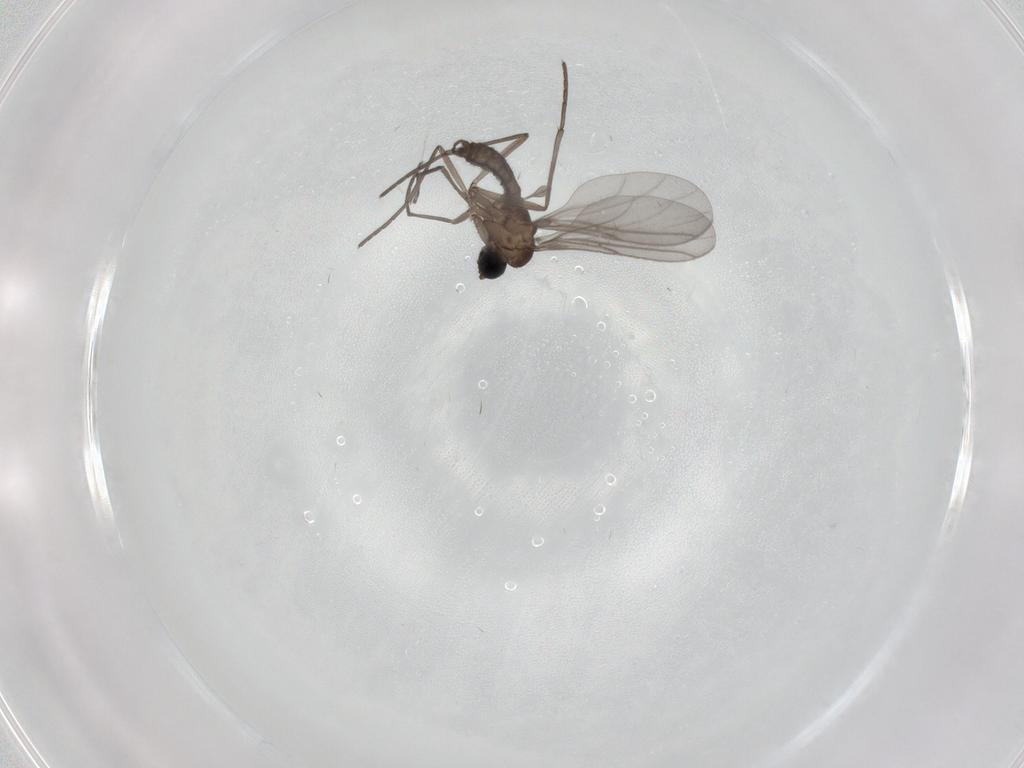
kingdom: Animalia
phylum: Arthropoda
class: Insecta
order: Diptera
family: Sciaridae
